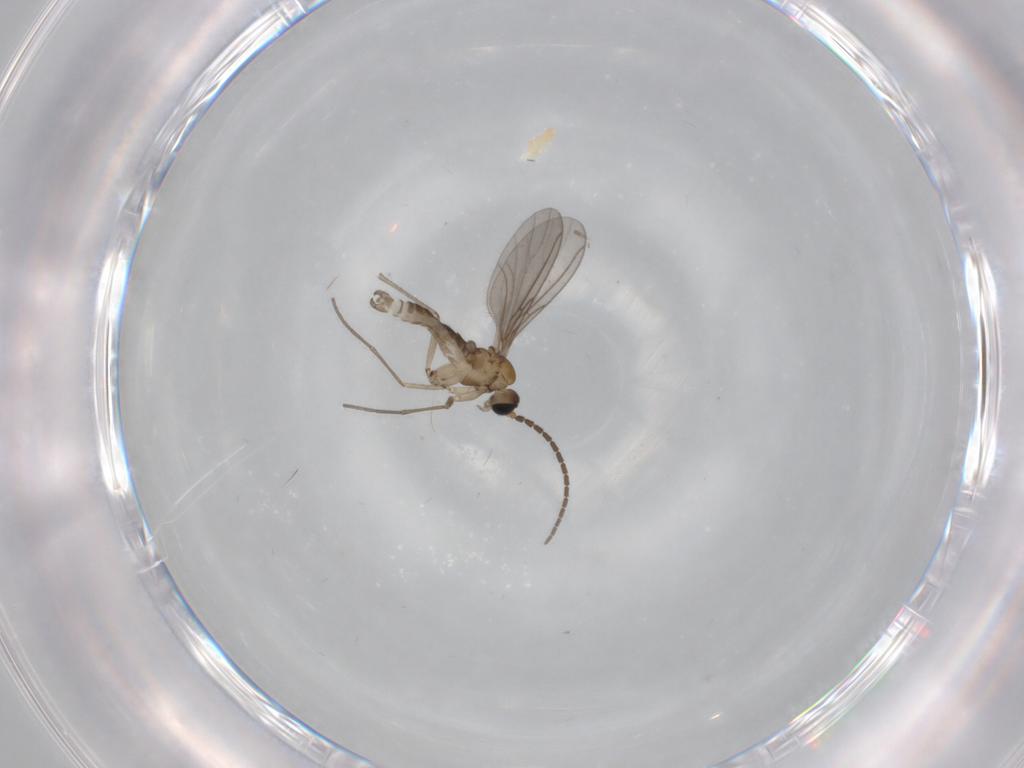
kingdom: Animalia
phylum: Arthropoda
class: Insecta
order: Diptera
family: Sciaridae
